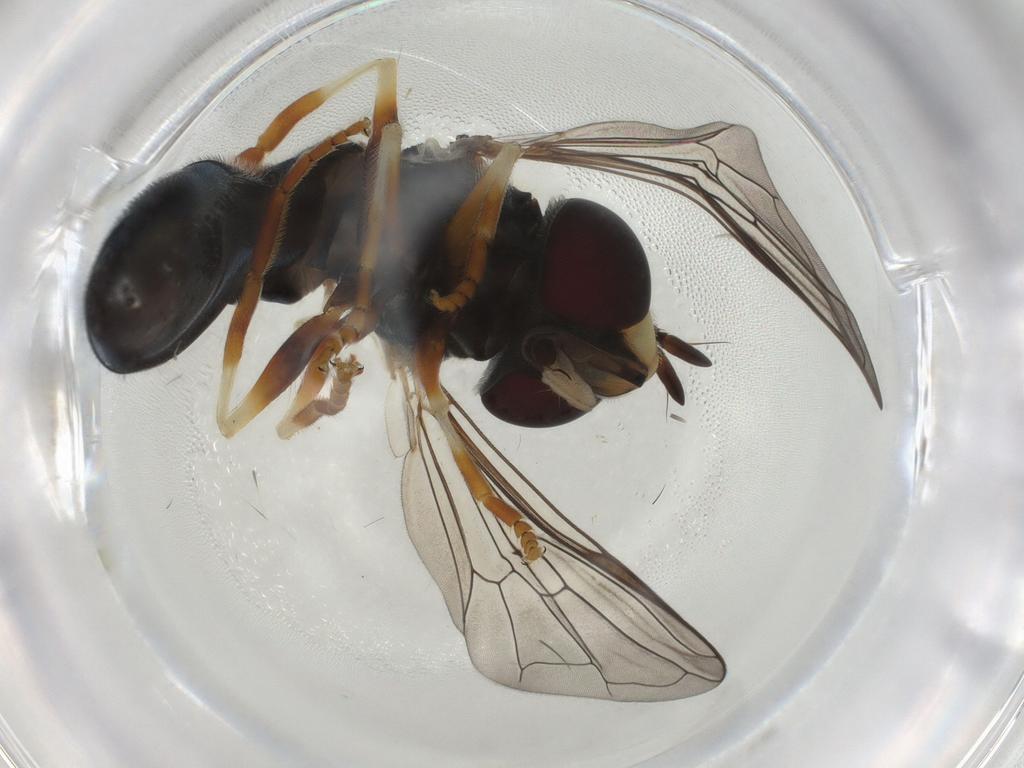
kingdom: Animalia
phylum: Arthropoda
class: Insecta
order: Diptera
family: Syrphidae
